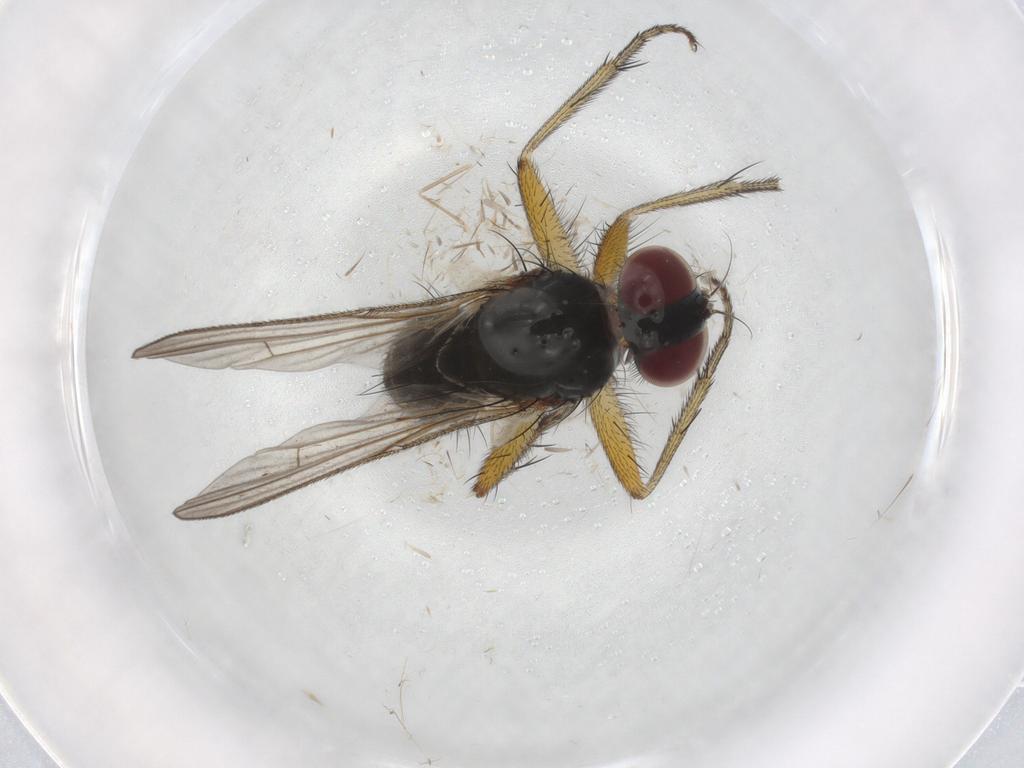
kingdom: Animalia
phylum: Arthropoda
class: Insecta
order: Diptera
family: Muscidae
